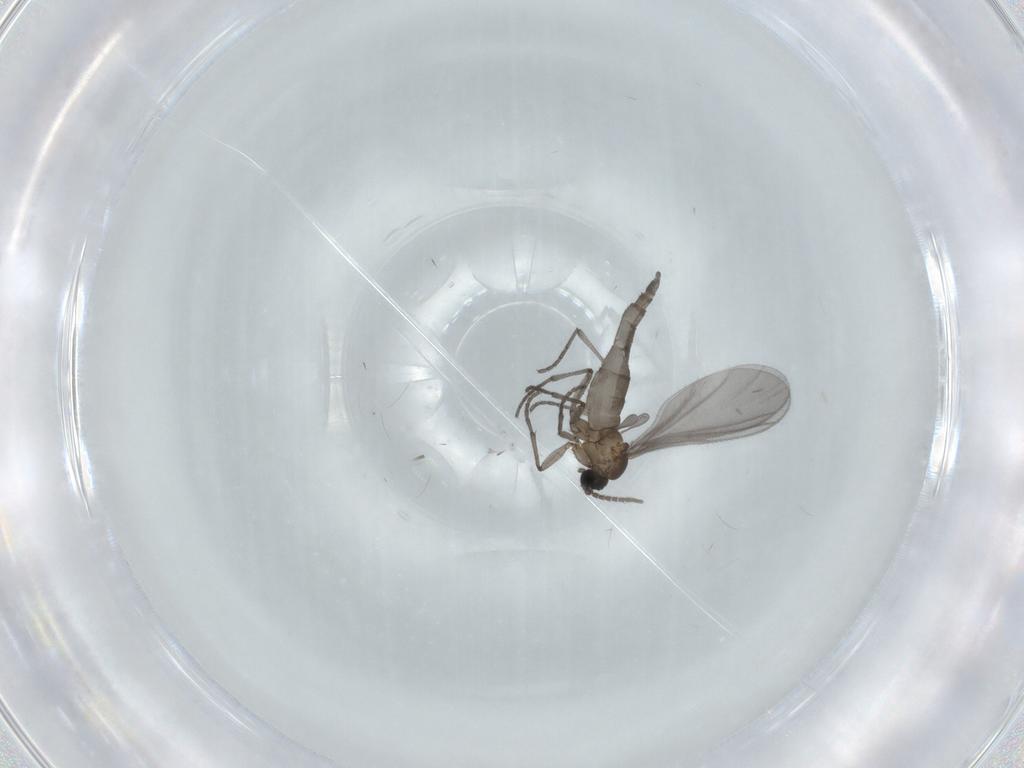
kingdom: Animalia
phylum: Arthropoda
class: Insecta
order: Diptera
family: Sciaridae
